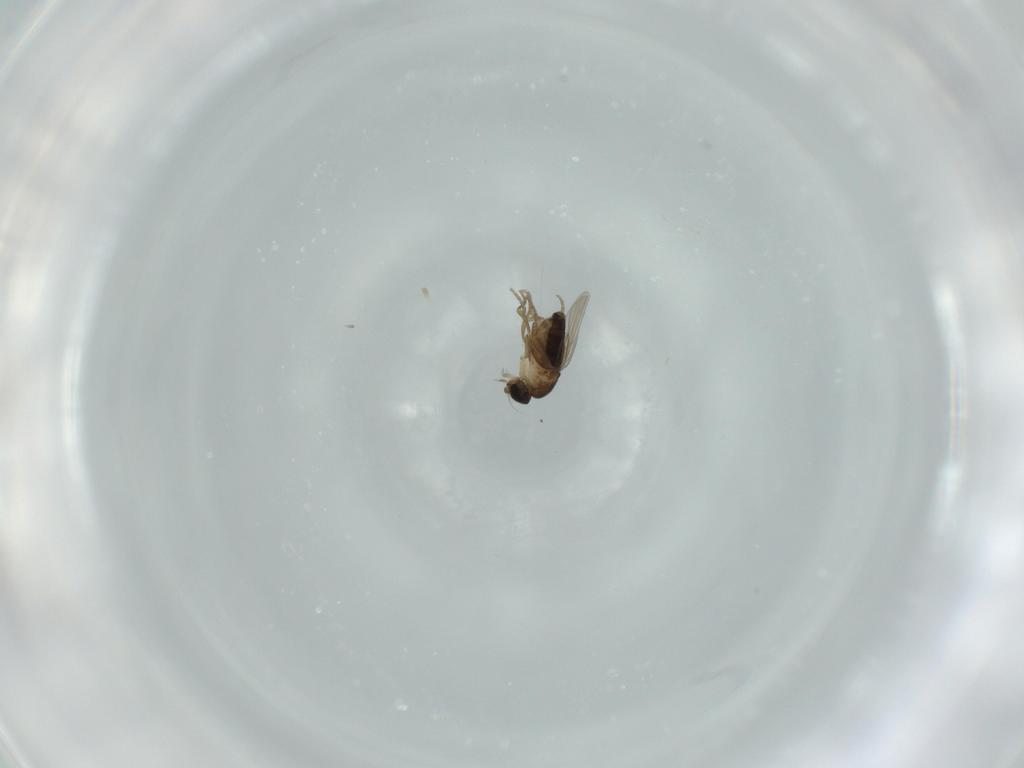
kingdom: Animalia
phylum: Arthropoda
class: Insecta
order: Diptera
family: Phoridae
